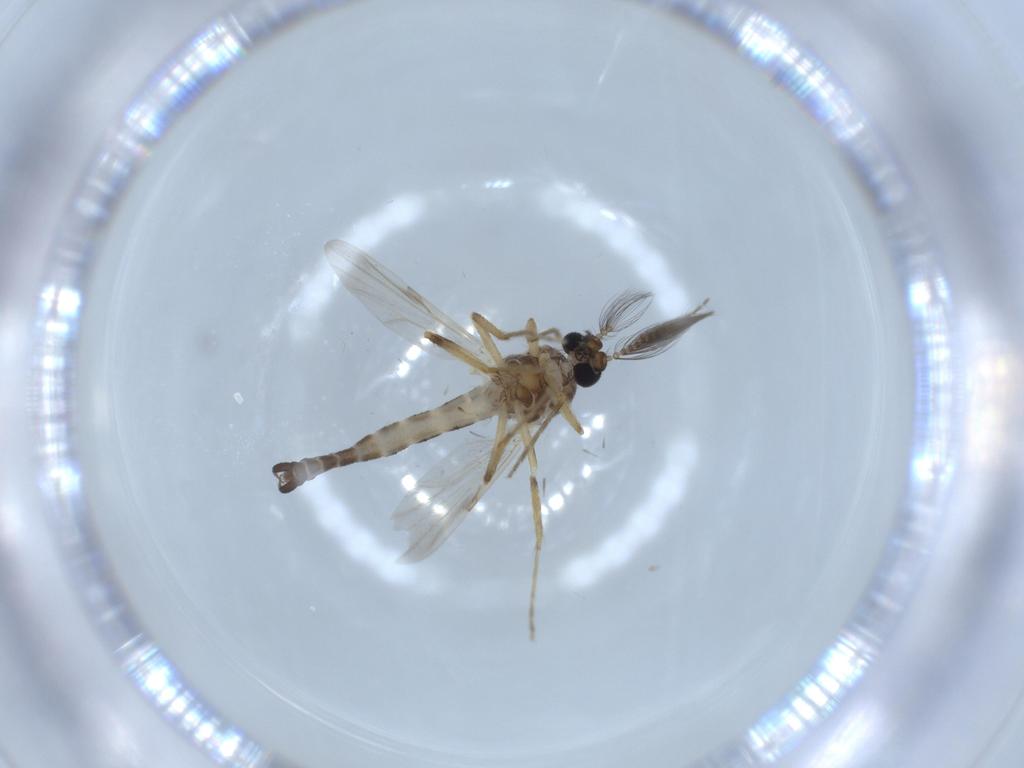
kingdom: Animalia
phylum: Arthropoda
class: Insecta
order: Diptera
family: Ceratopogonidae
